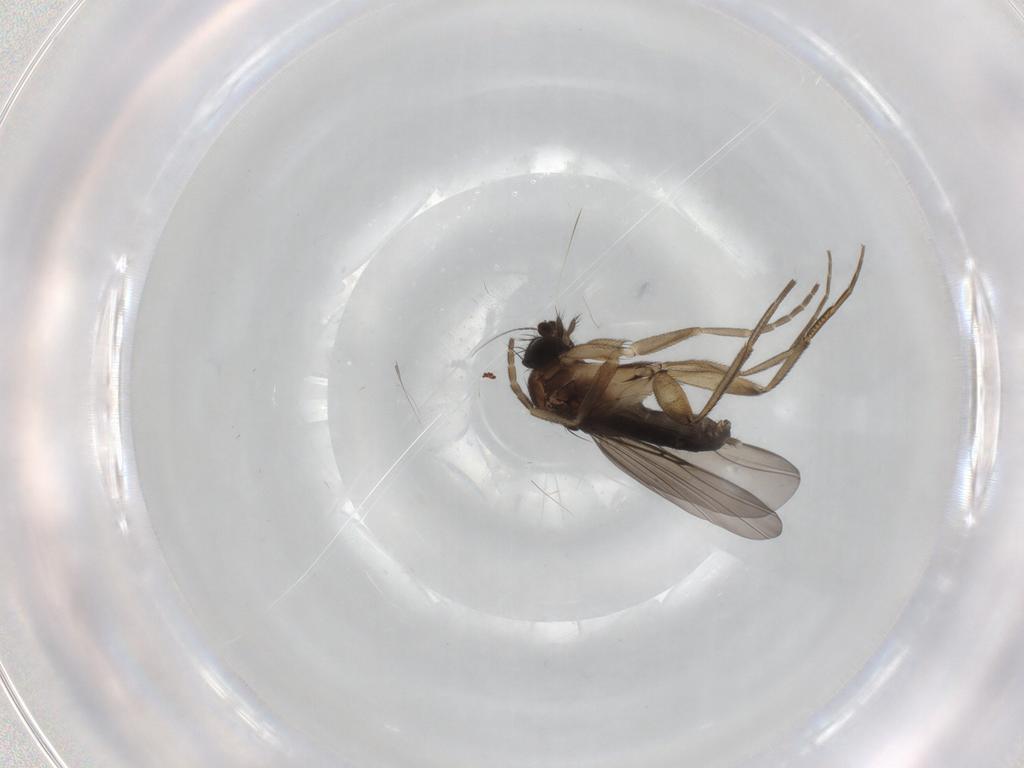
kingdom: Animalia
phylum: Arthropoda
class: Insecta
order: Diptera
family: Phoridae
